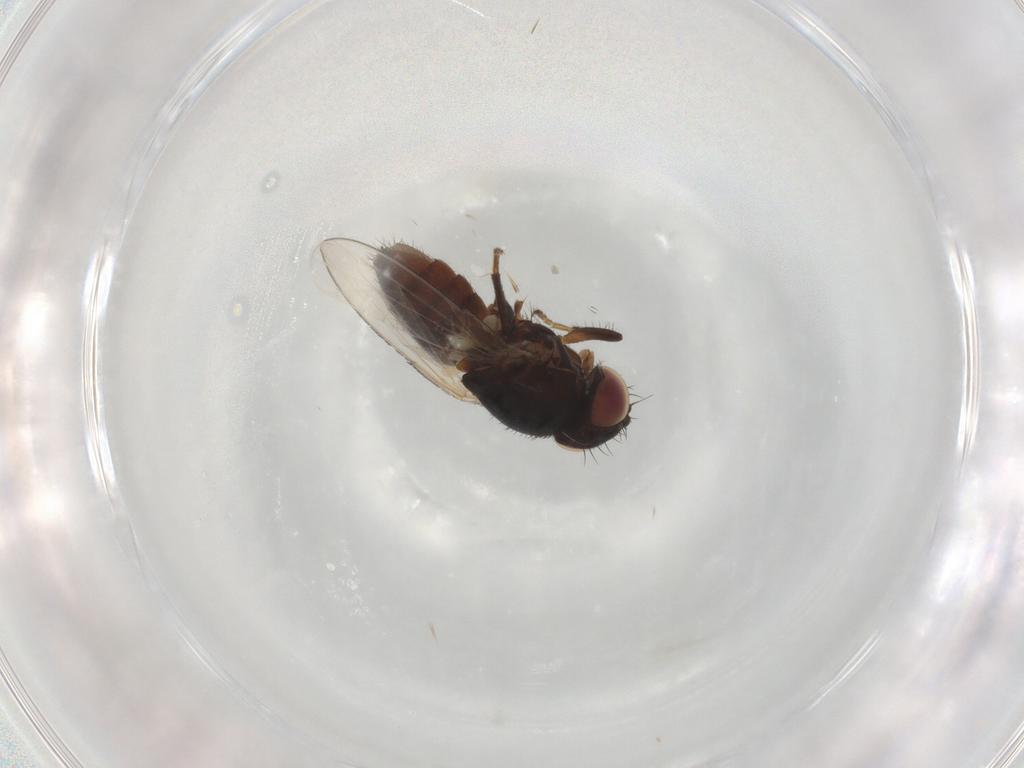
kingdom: Animalia
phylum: Arthropoda
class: Insecta
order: Diptera
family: Milichiidae
